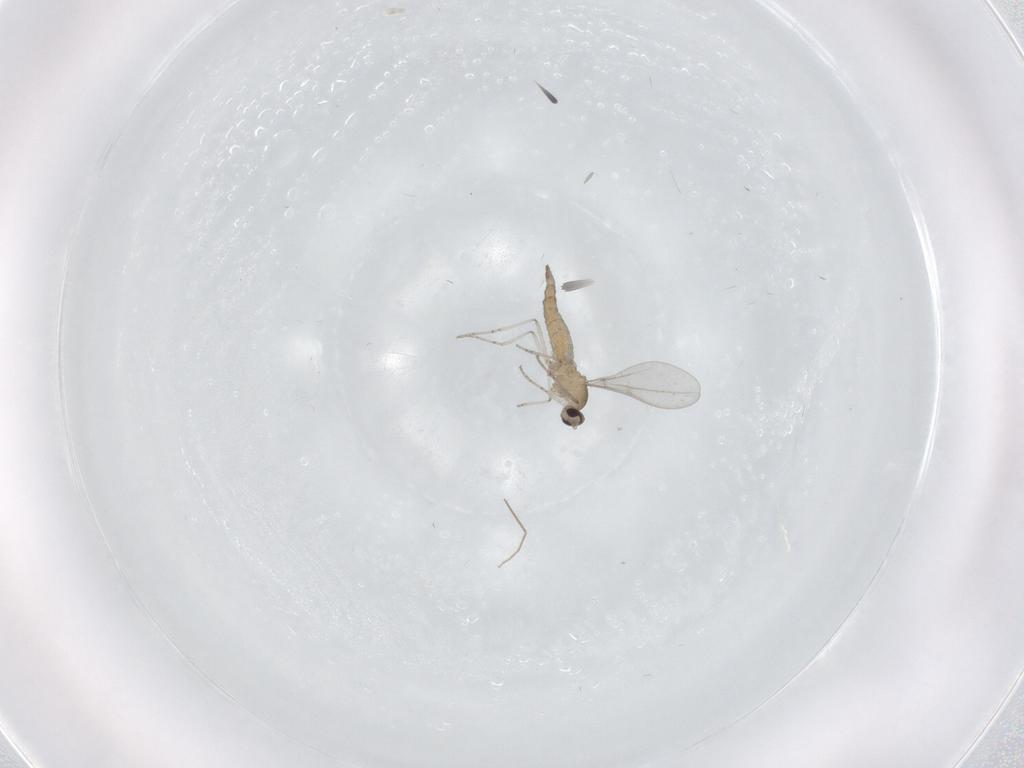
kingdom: Animalia
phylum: Arthropoda
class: Insecta
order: Diptera
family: Cecidomyiidae
